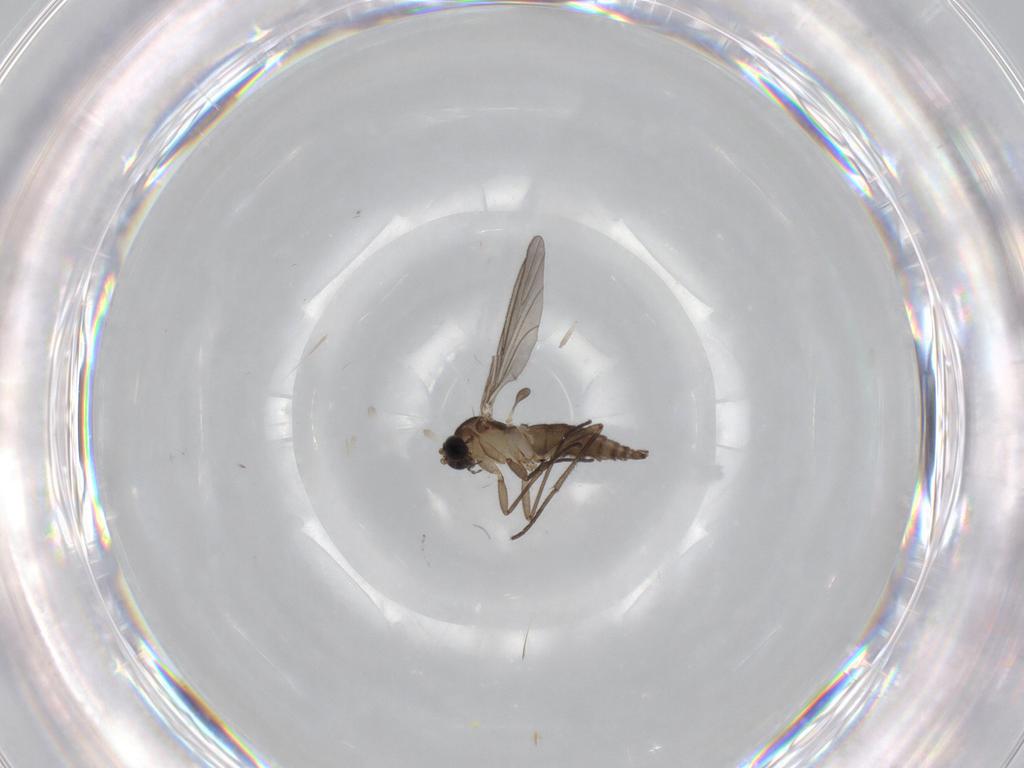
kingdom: Animalia
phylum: Arthropoda
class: Insecta
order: Diptera
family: Sciaridae
